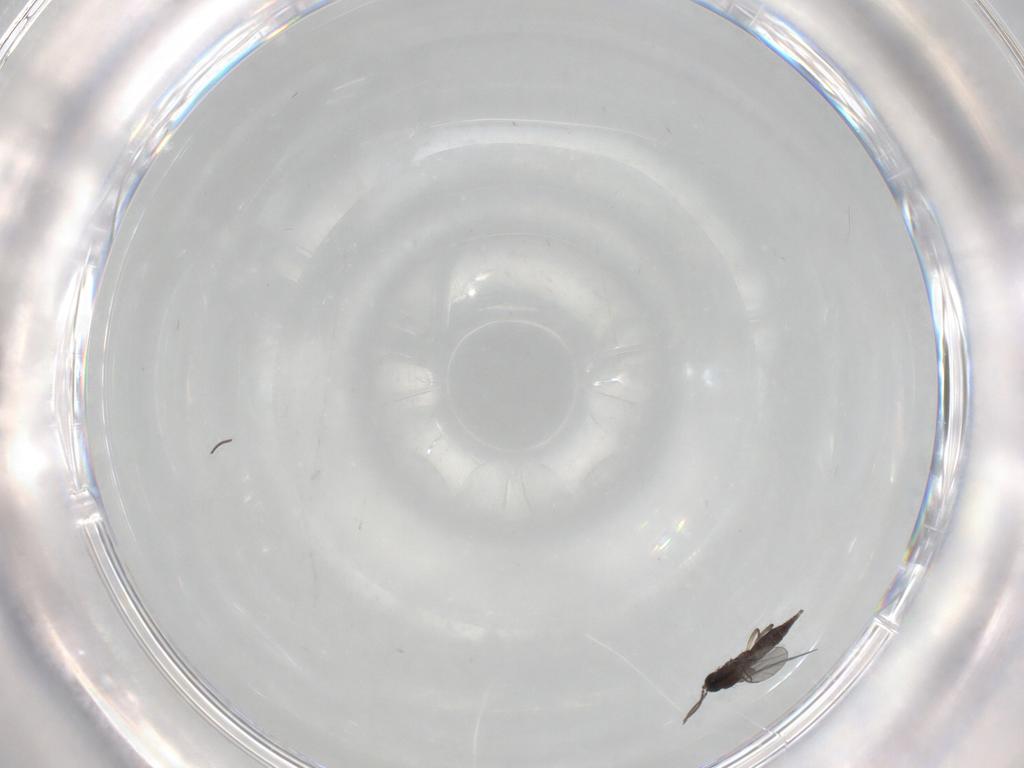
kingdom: Animalia
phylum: Arthropoda
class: Insecta
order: Diptera
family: Sciaridae
